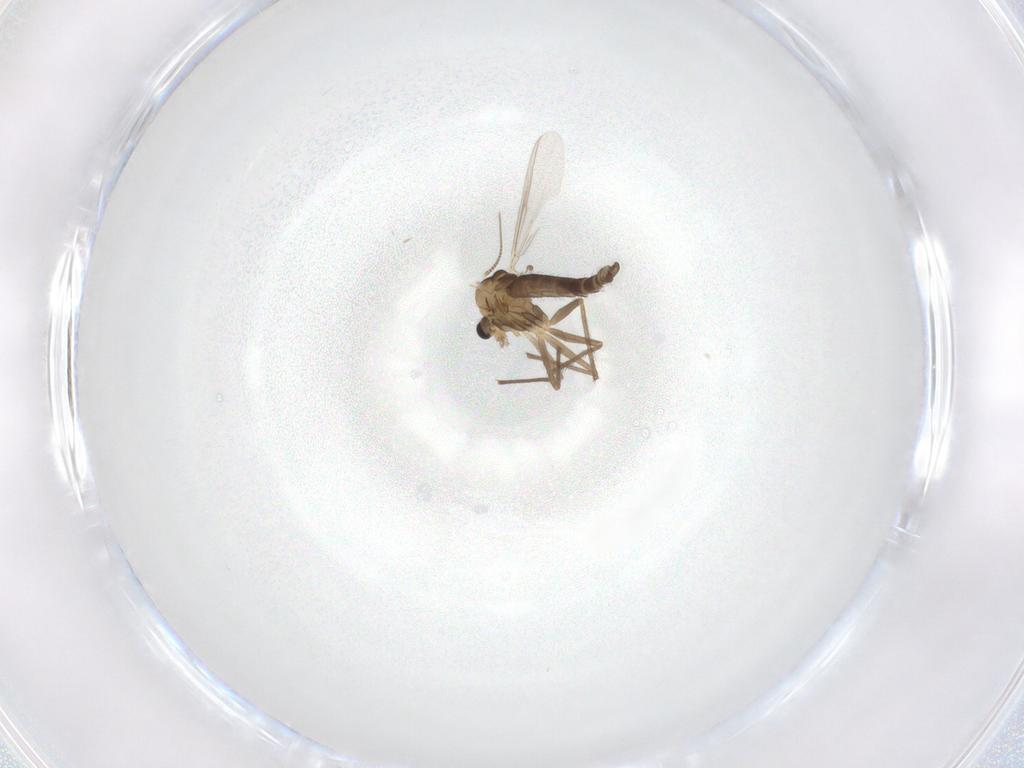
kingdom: Animalia
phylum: Arthropoda
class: Insecta
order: Diptera
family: Chironomidae
